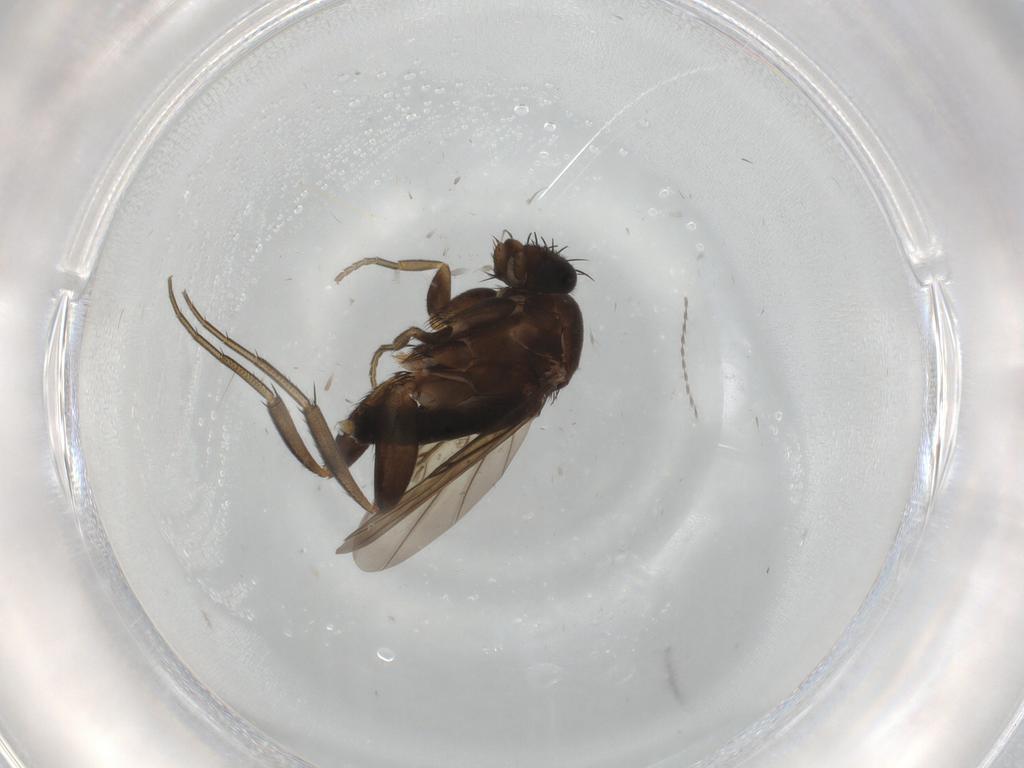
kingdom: Animalia
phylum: Arthropoda
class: Insecta
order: Diptera
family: Phoridae
